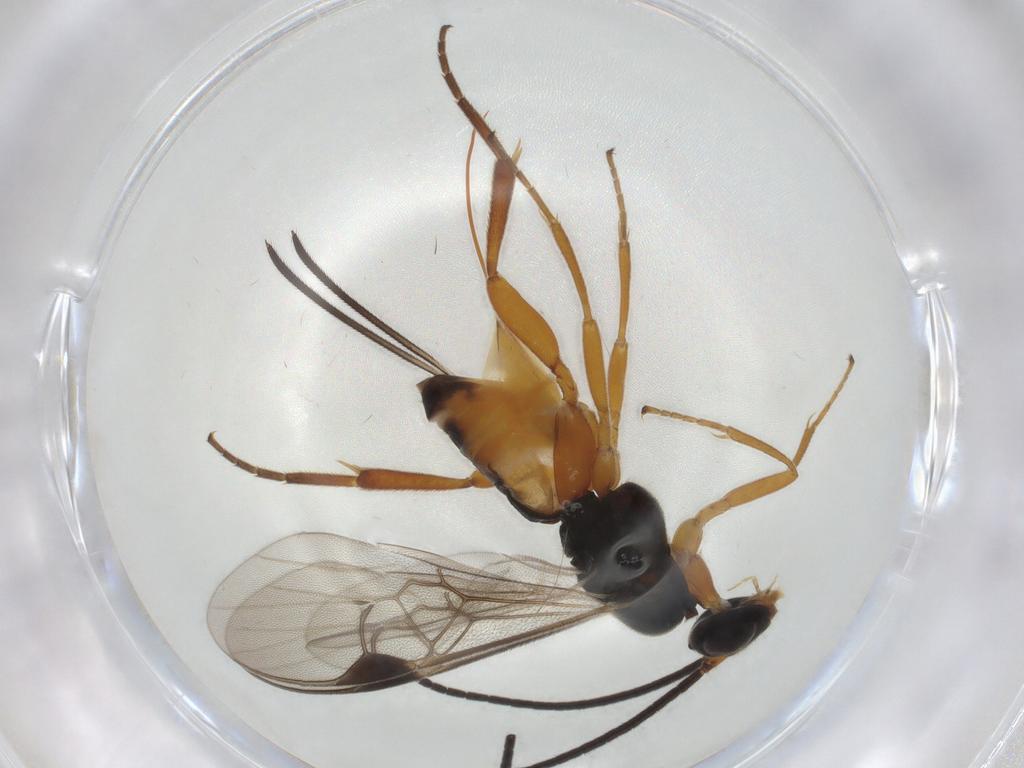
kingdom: Animalia
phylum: Arthropoda
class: Insecta
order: Hymenoptera
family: Braconidae
